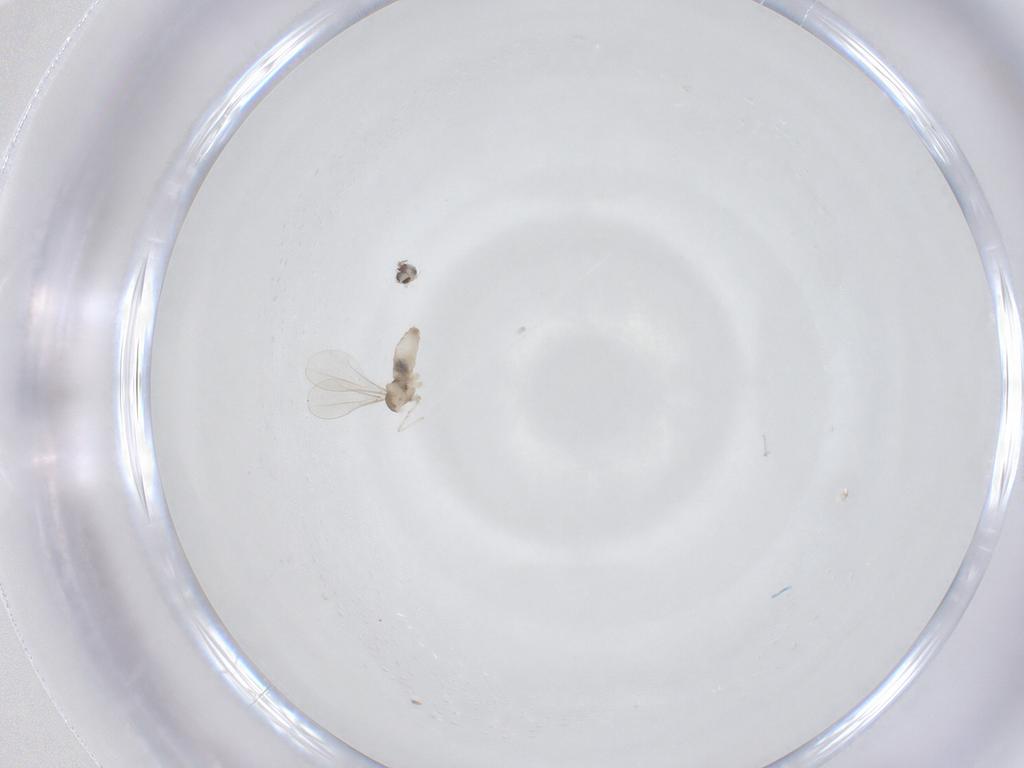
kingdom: Animalia
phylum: Arthropoda
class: Insecta
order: Diptera
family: Cecidomyiidae
